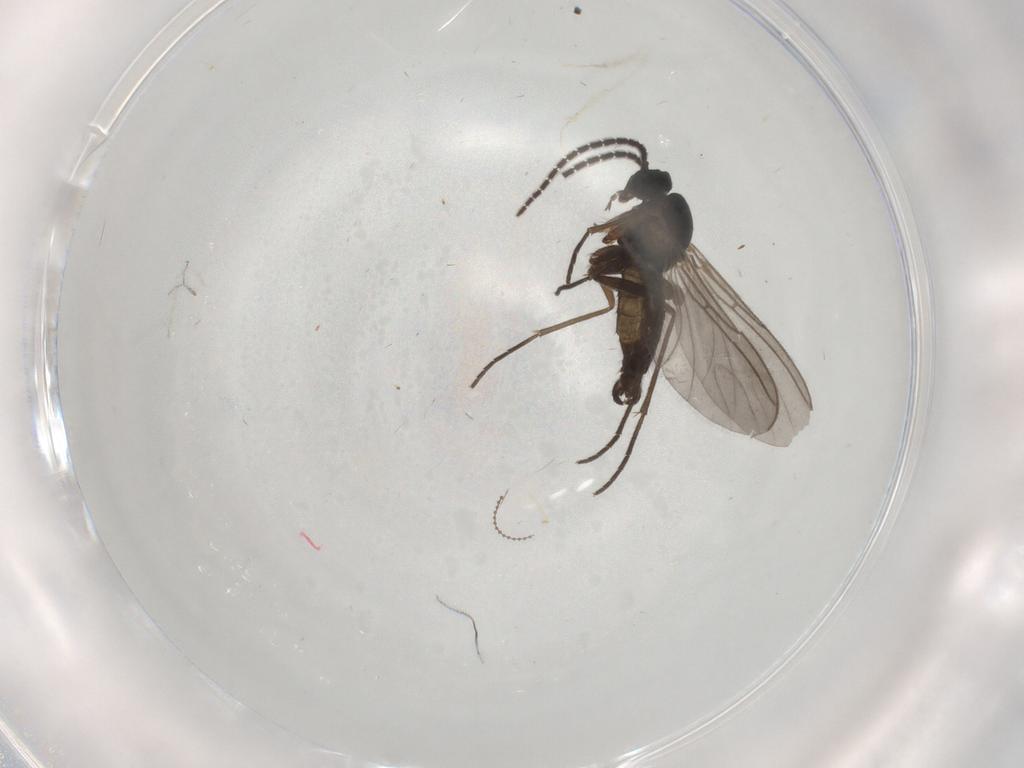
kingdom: Animalia
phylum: Arthropoda
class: Insecta
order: Diptera
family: Sciaridae
